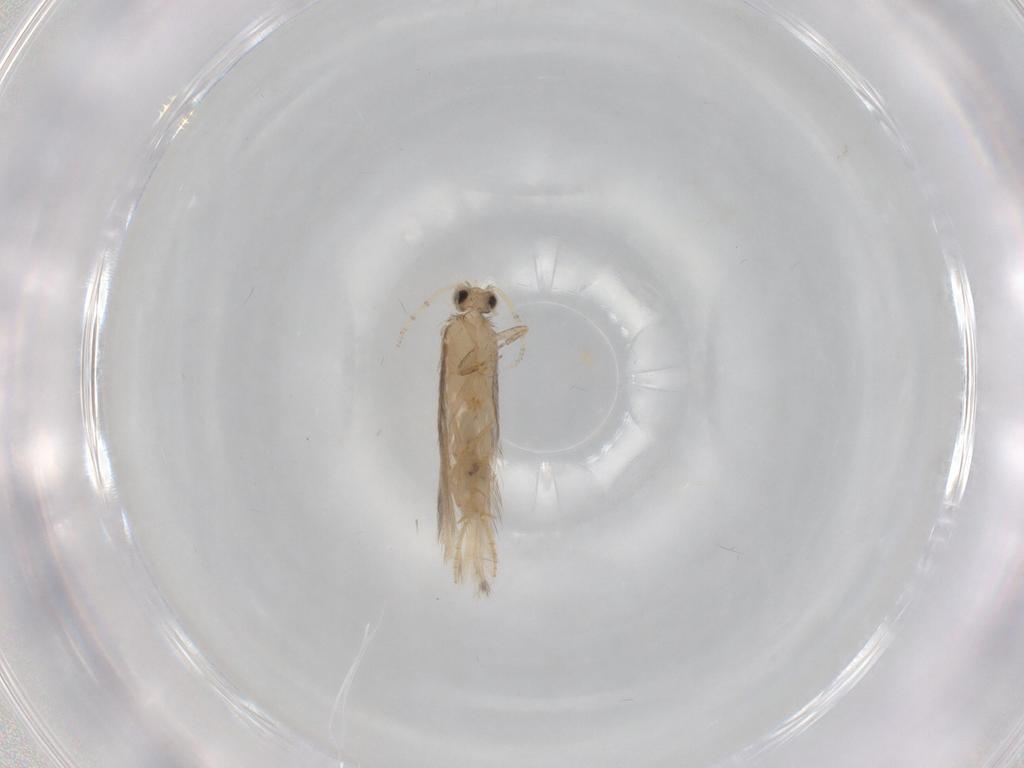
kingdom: Animalia
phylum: Arthropoda
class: Insecta
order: Trichoptera
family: Hydroptilidae
